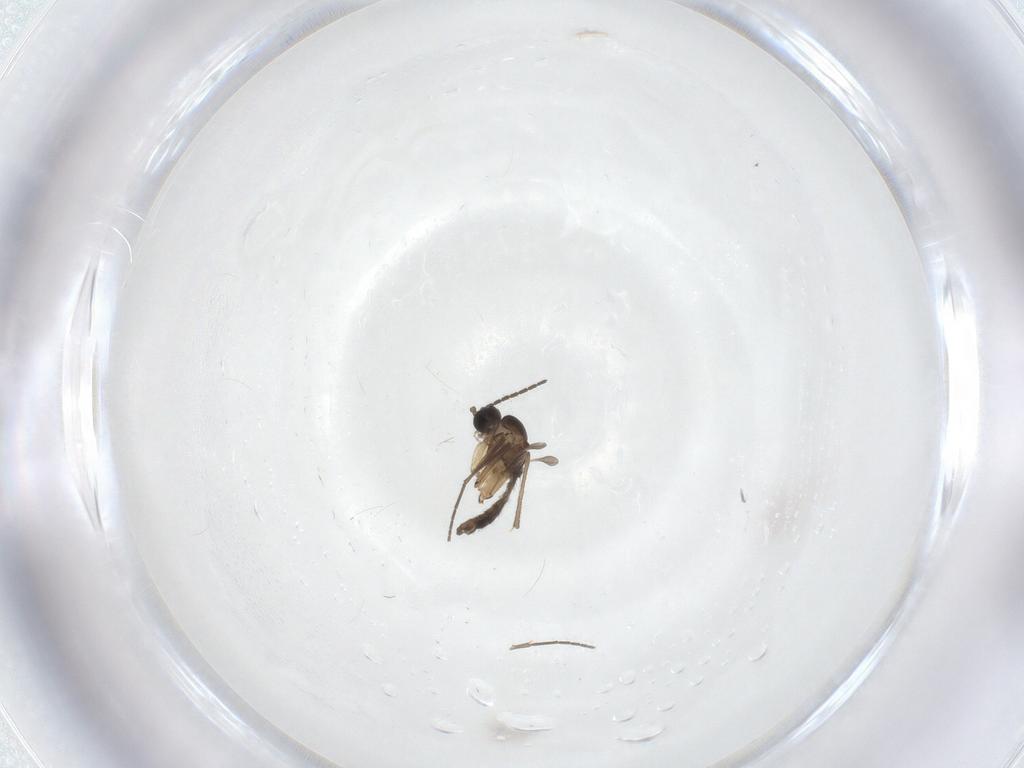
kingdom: Animalia
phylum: Arthropoda
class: Insecta
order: Diptera
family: Sciaridae
